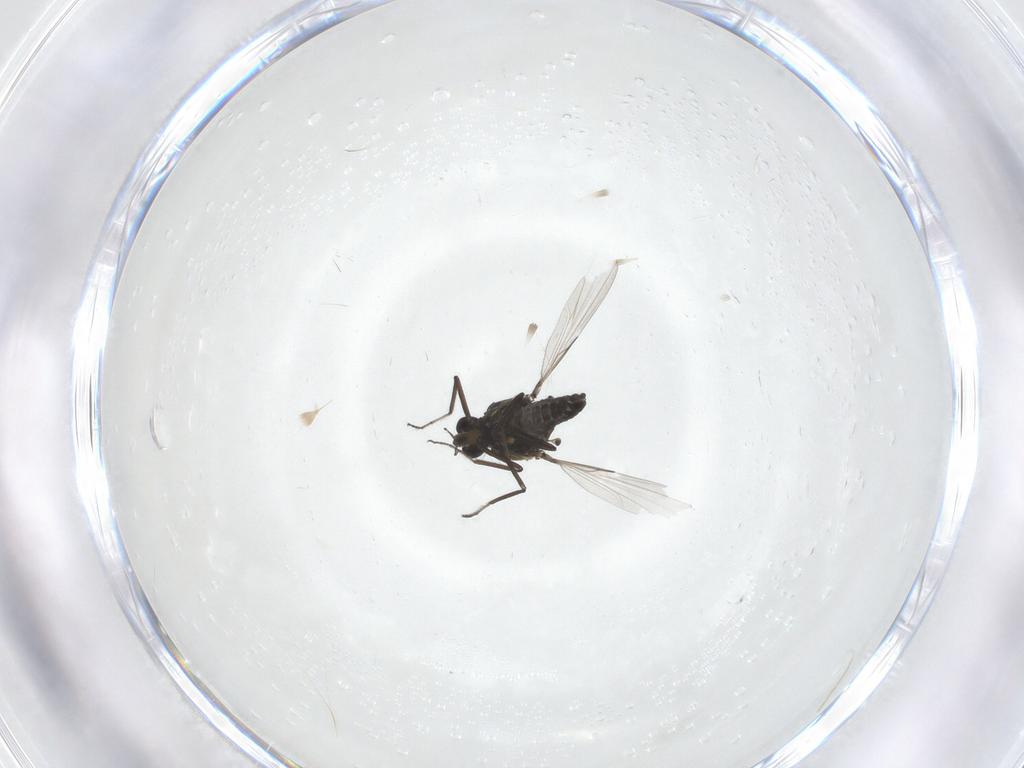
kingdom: Animalia
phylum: Arthropoda
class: Insecta
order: Diptera
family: Ceratopogonidae
